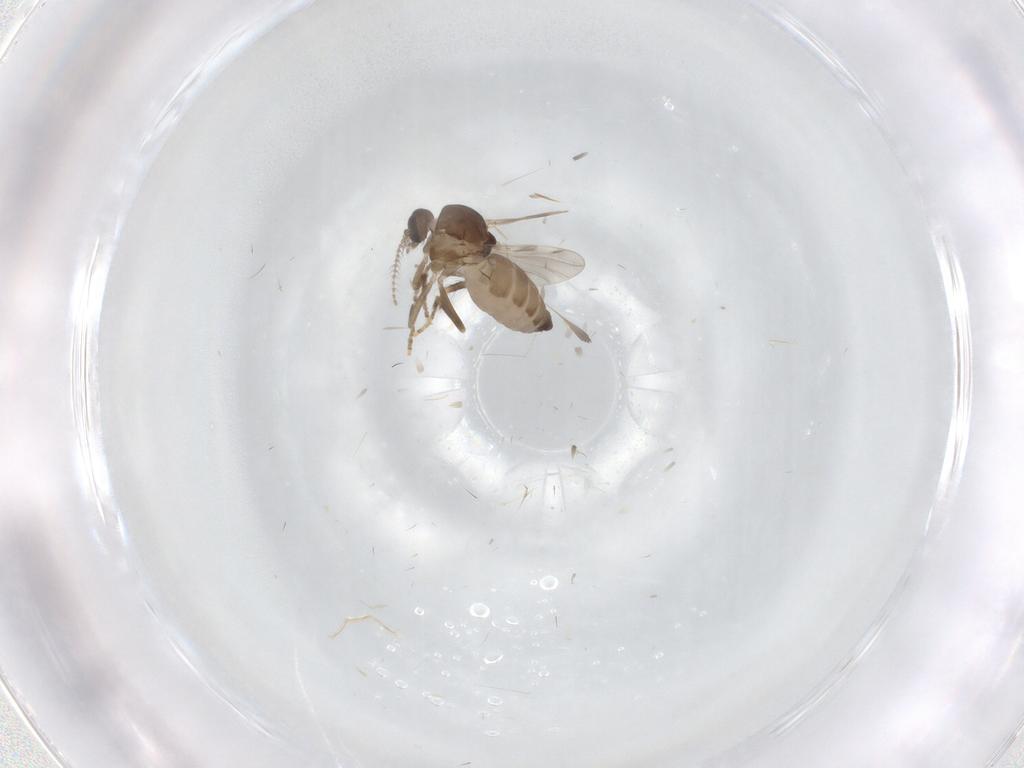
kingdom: Animalia
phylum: Arthropoda
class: Insecta
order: Diptera
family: Ceratopogonidae
